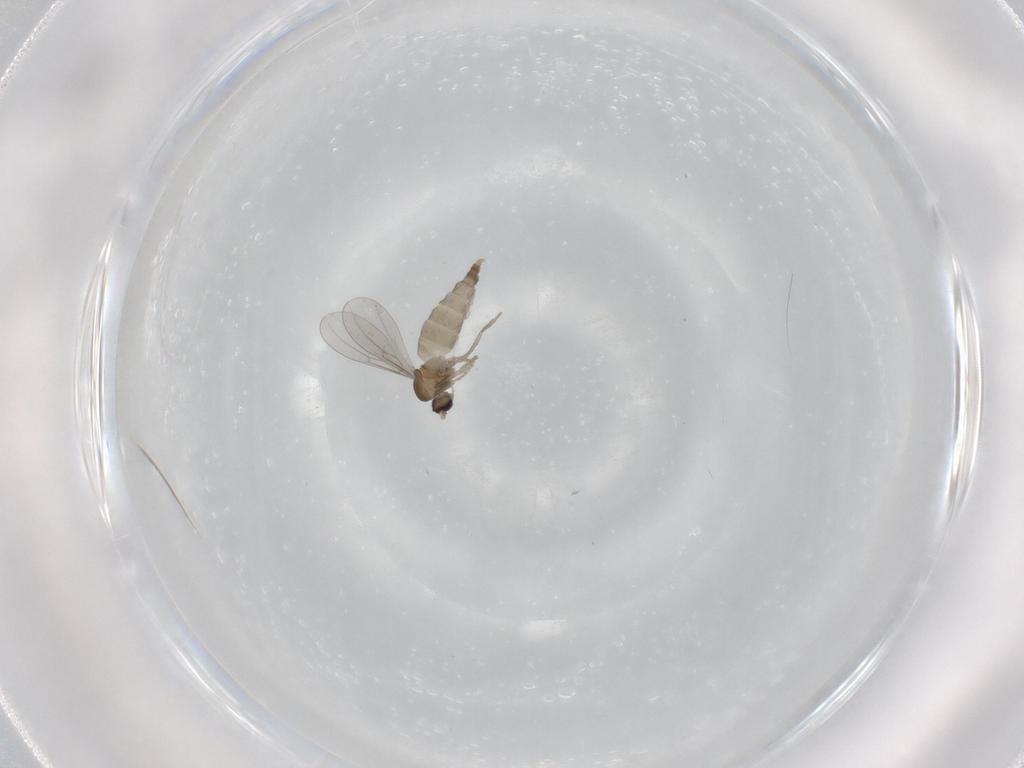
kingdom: Animalia
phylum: Arthropoda
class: Insecta
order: Diptera
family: Cecidomyiidae
